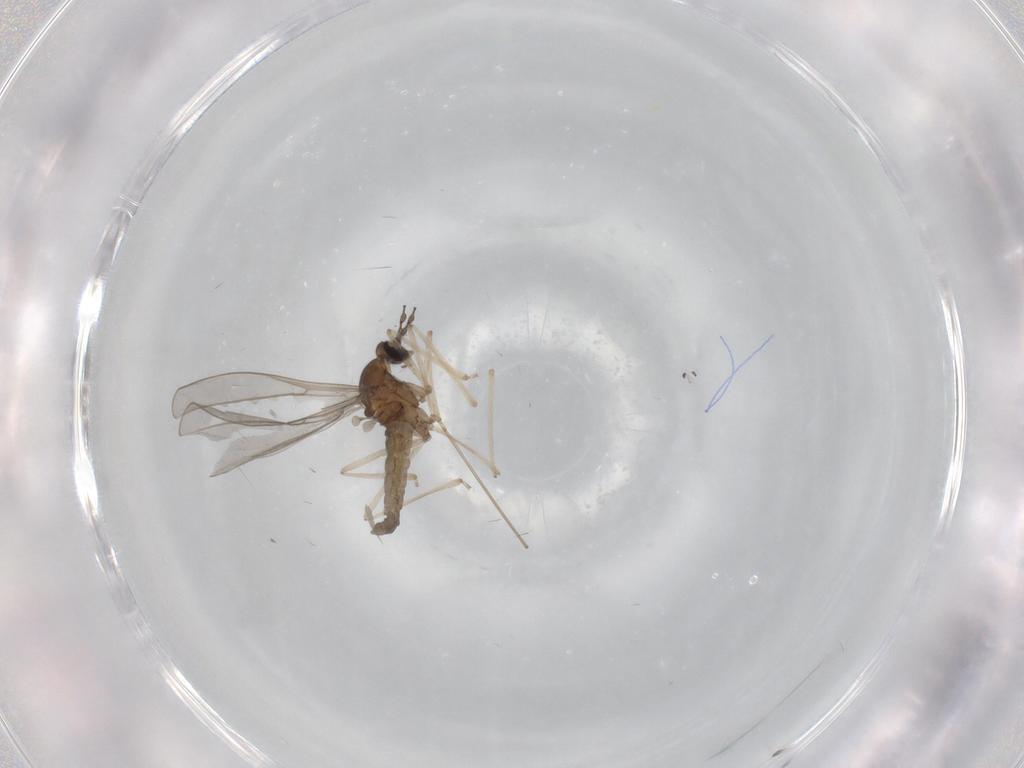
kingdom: Animalia
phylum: Arthropoda
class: Insecta
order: Diptera
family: Cecidomyiidae
